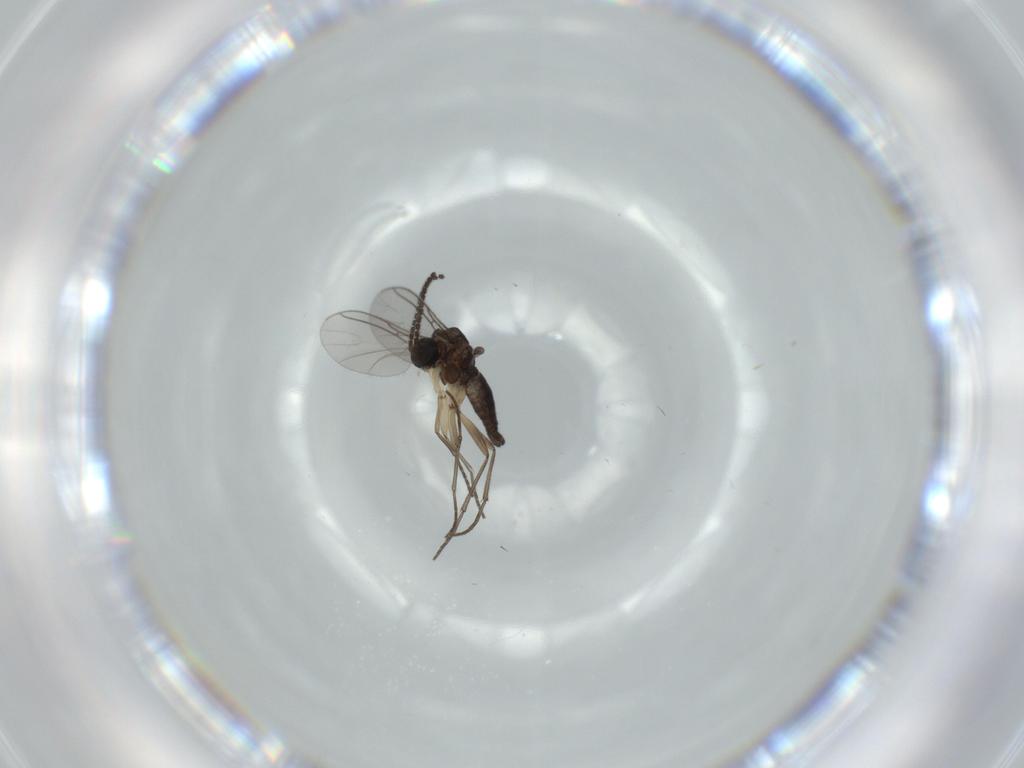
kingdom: Animalia
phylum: Arthropoda
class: Insecta
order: Diptera
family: Sciaridae
